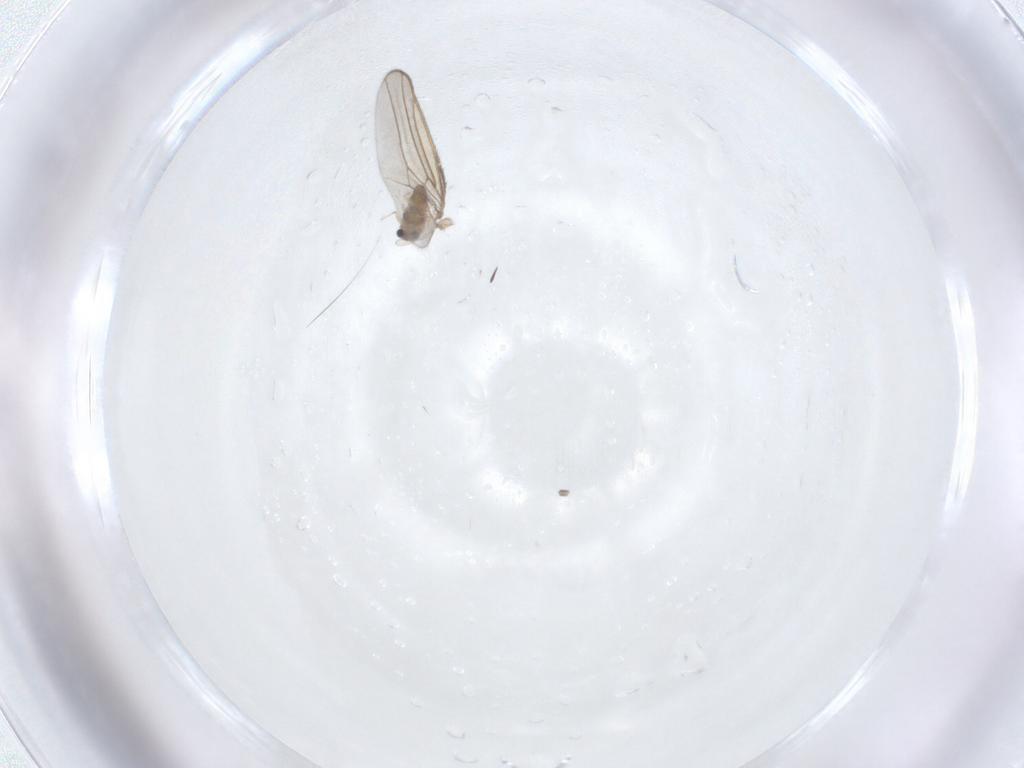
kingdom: Animalia
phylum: Arthropoda
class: Insecta
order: Diptera
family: Chironomidae
